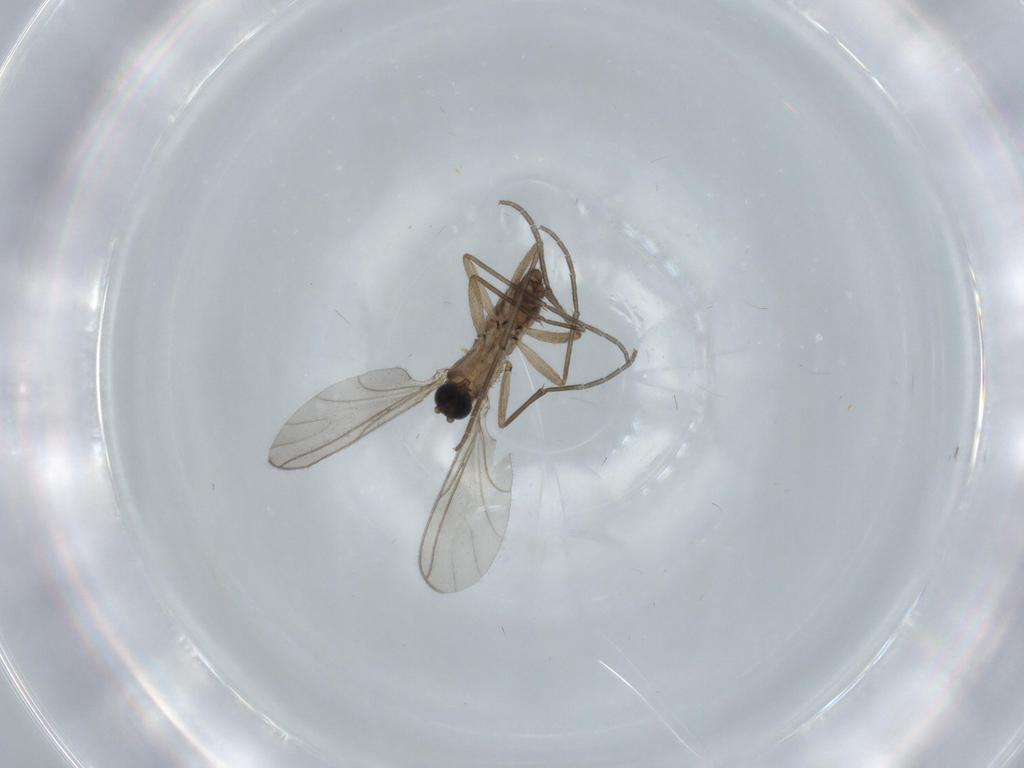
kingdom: Animalia
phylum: Arthropoda
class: Insecta
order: Diptera
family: Sciaridae
